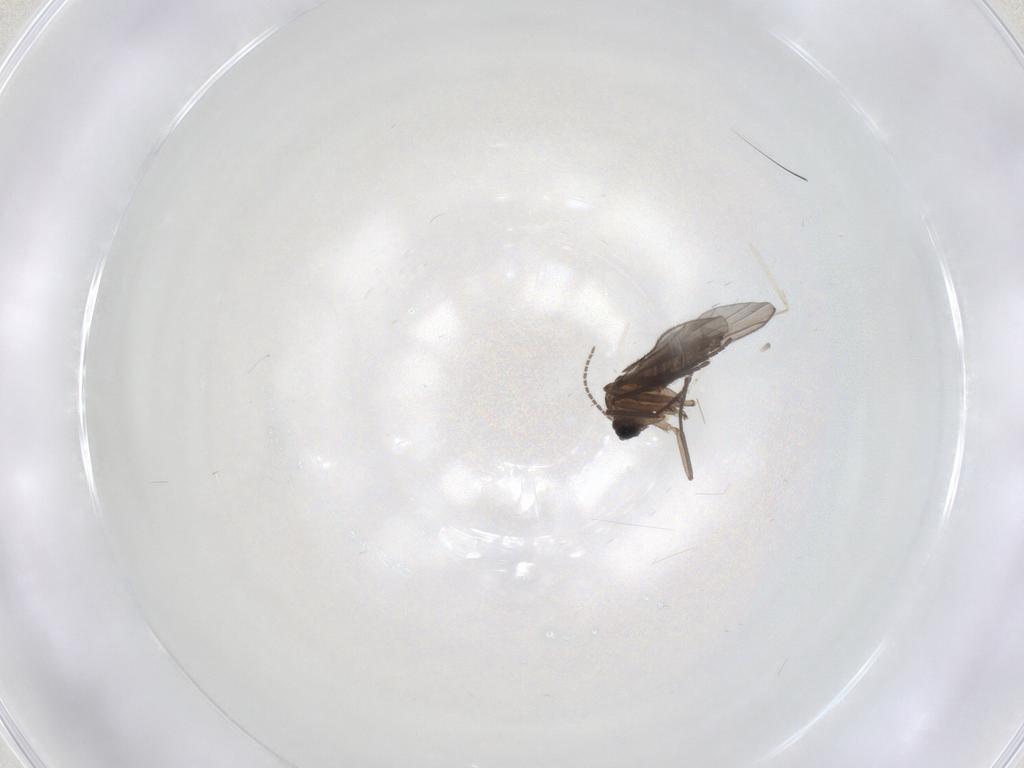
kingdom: Animalia
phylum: Arthropoda
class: Insecta
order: Diptera
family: Cecidomyiidae
